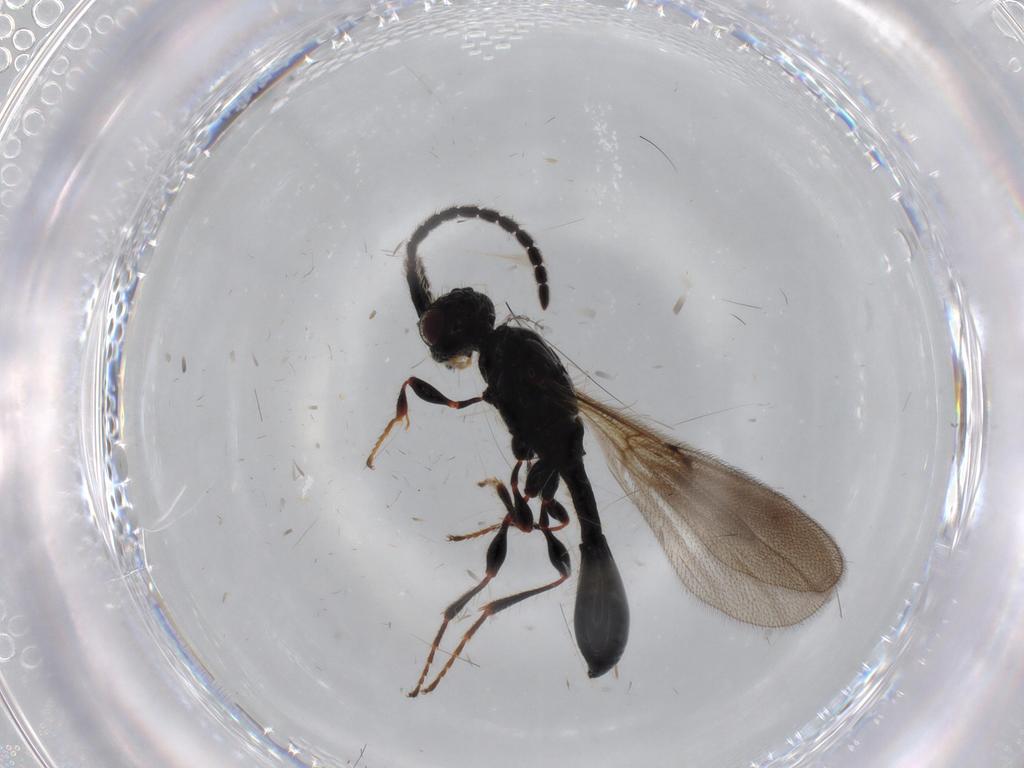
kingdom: Animalia
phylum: Arthropoda
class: Insecta
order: Hymenoptera
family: Diapriidae
